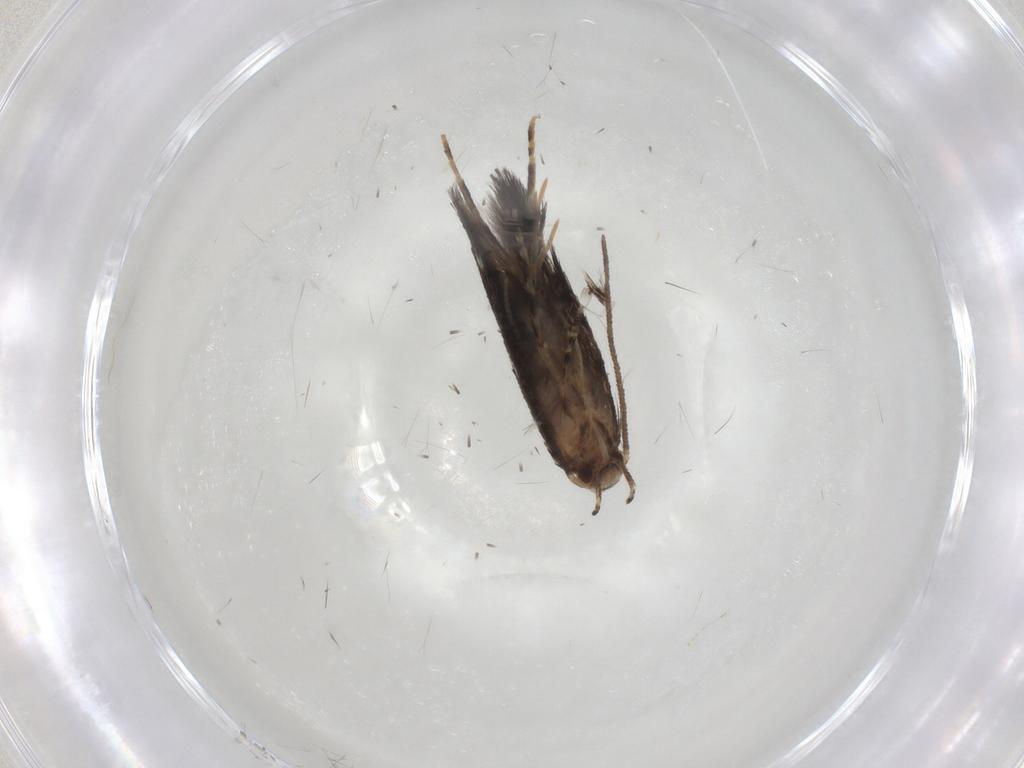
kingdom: Animalia
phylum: Arthropoda
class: Insecta
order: Lepidoptera
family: Elachistidae
